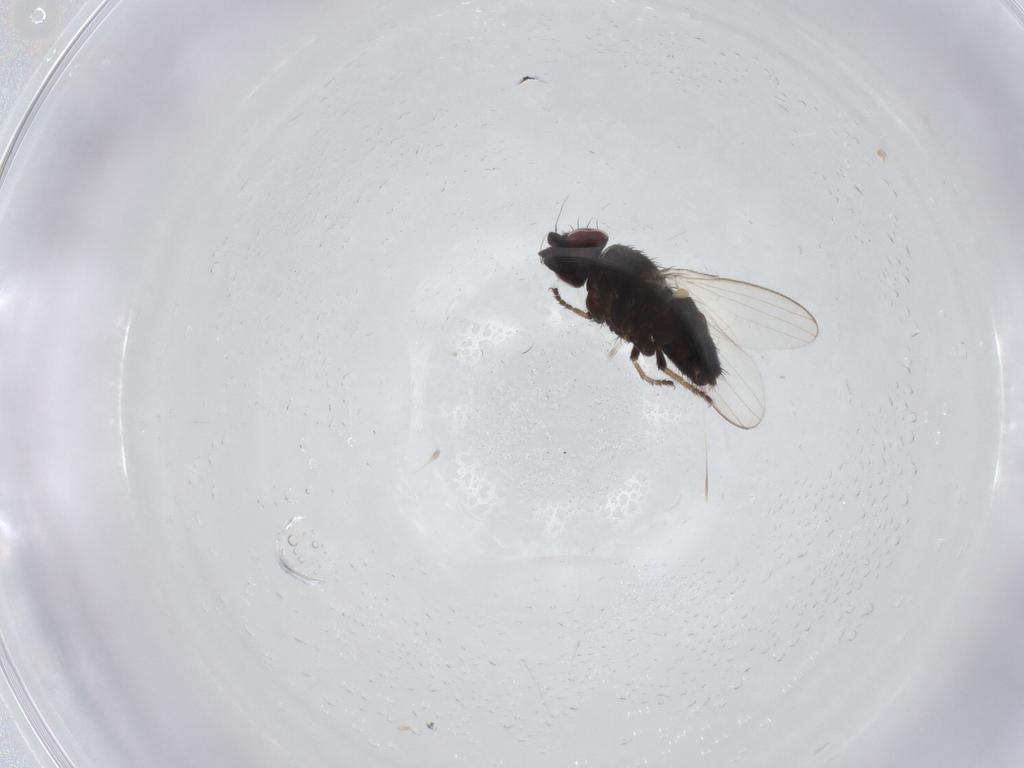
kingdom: Animalia
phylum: Arthropoda
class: Insecta
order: Diptera
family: Milichiidae
